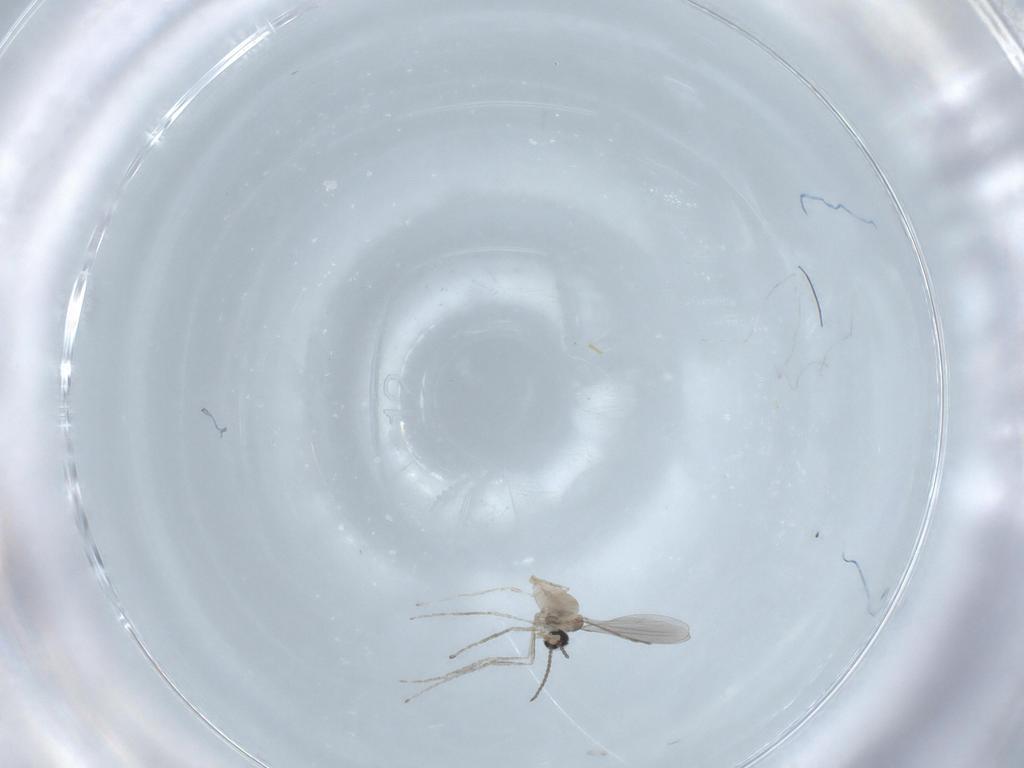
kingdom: Animalia
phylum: Arthropoda
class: Insecta
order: Diptera
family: Cecidomyiidae
